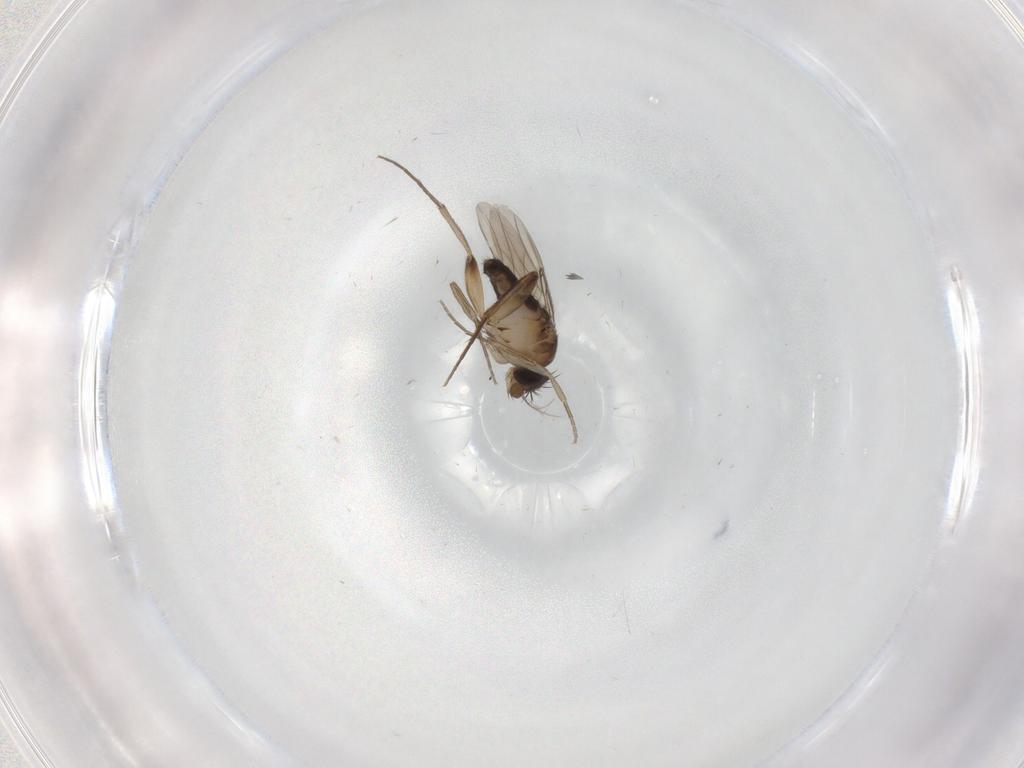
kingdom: Animalia
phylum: Arthropoda
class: Insecta
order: Diptera
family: Phoridae
